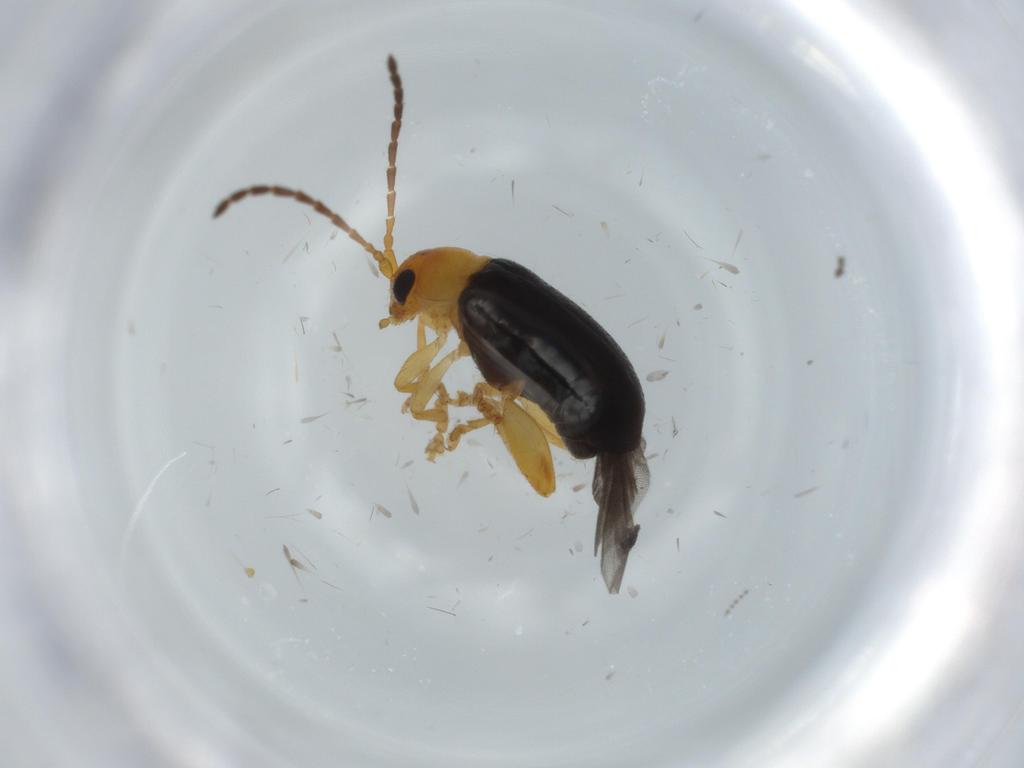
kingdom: Animalia
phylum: Arthropoda
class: Insecta
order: Coleoptera
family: Chrysomelidae
